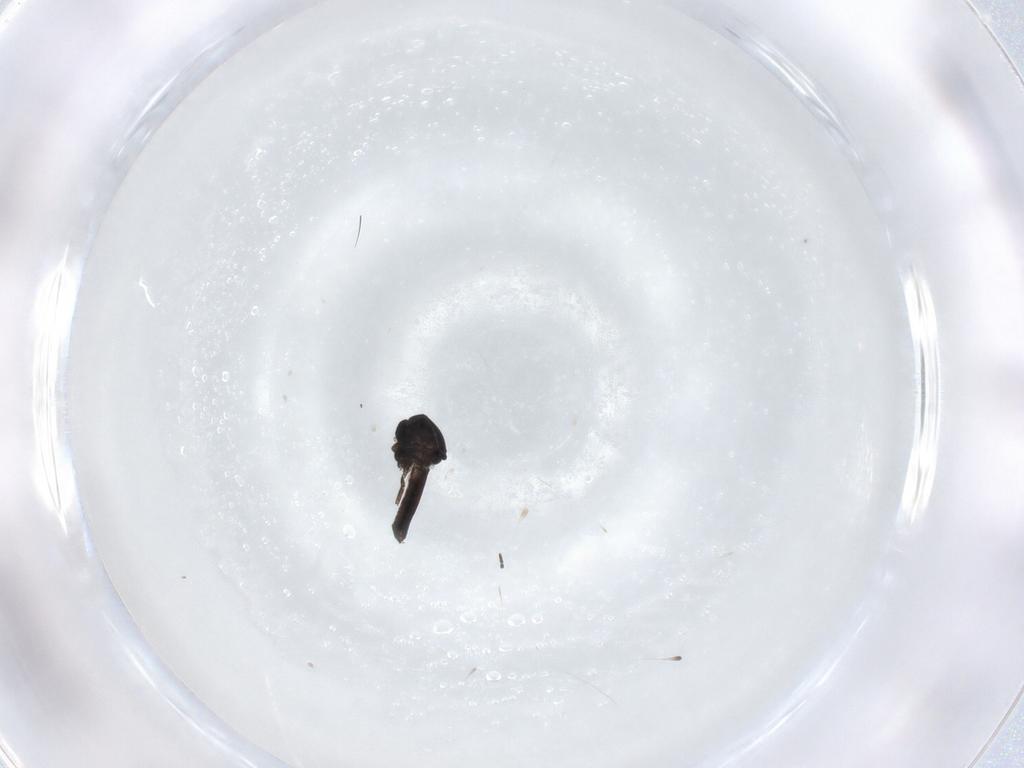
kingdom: Animalia
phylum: Arthropoda
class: Insecta
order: Diptera
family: Ceratopogonidae
